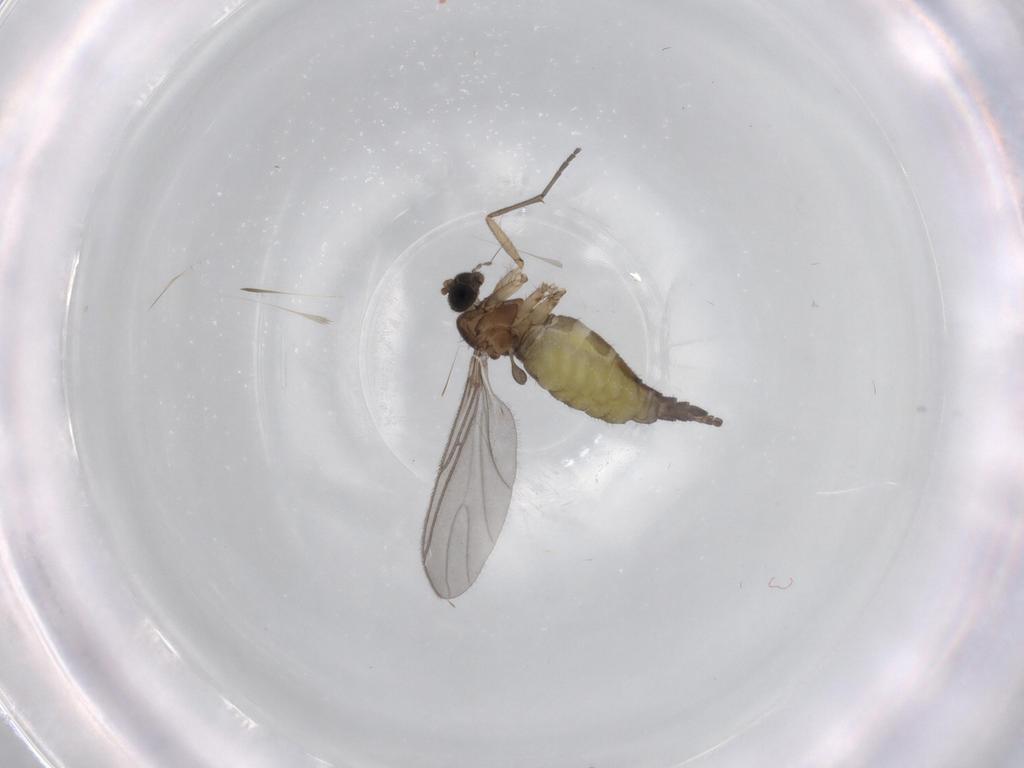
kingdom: Animalia
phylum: Arthropoda
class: Insecta
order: Diptera
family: Sciaridae
